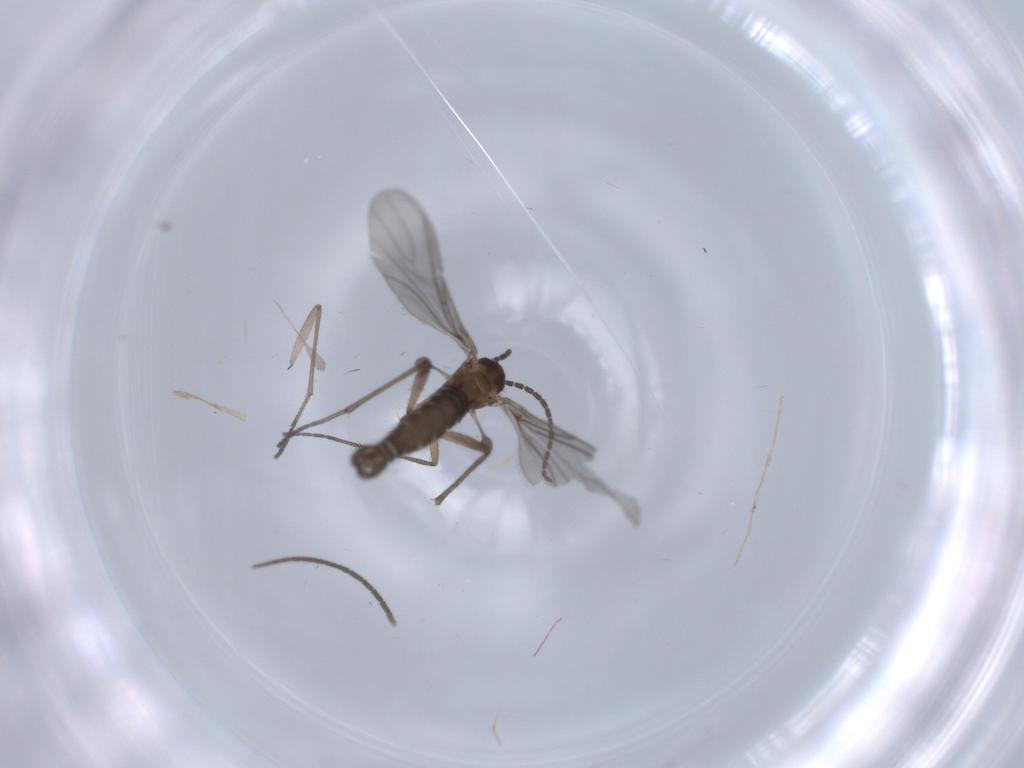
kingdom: Animalia
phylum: Arthropoda
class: Insecta
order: Diptera
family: Sciaridae
